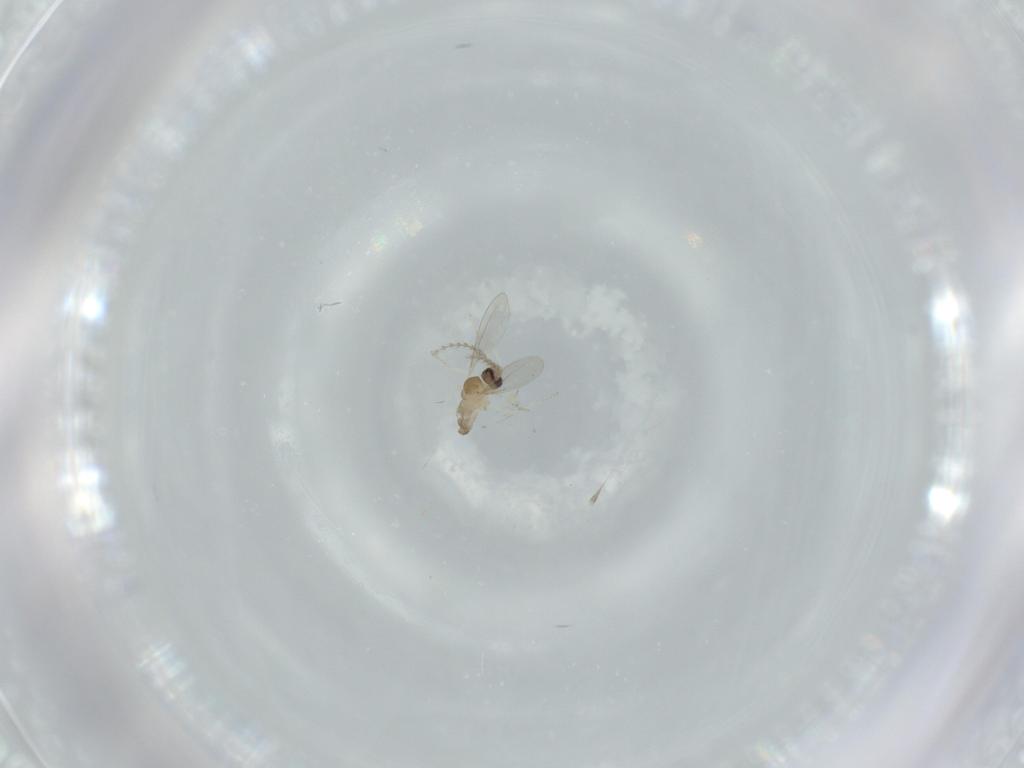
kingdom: Animalia
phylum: Arthropoda
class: Insecta
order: Diptera
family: Cecidomyiidae
